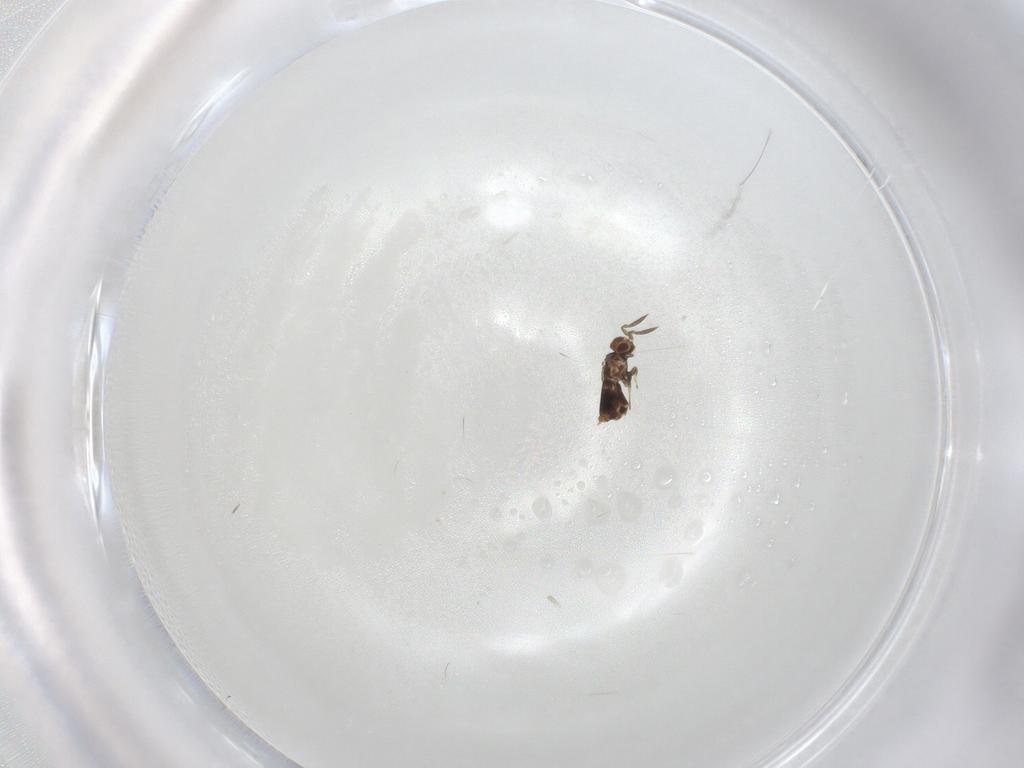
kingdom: Animalia
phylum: Arthropoda
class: Insecta
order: Hymenoptera
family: Aphelinidae
